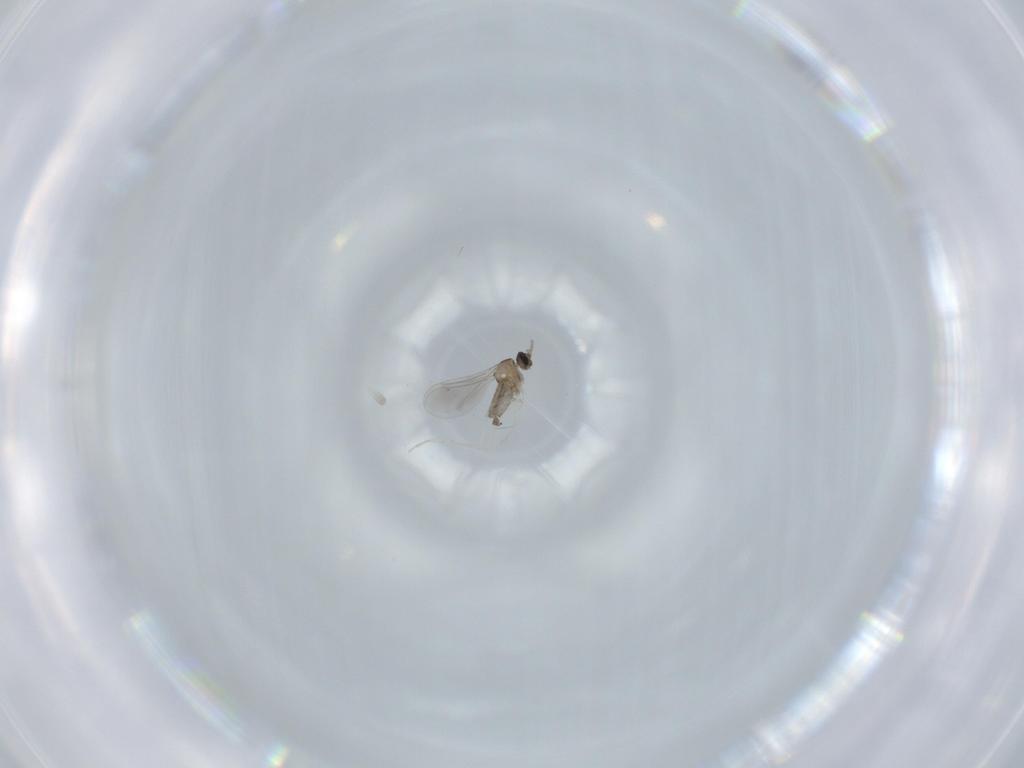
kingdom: Animalia
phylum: Arthropoda
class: Insecta
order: Diptera
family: Cecidomyiidae
